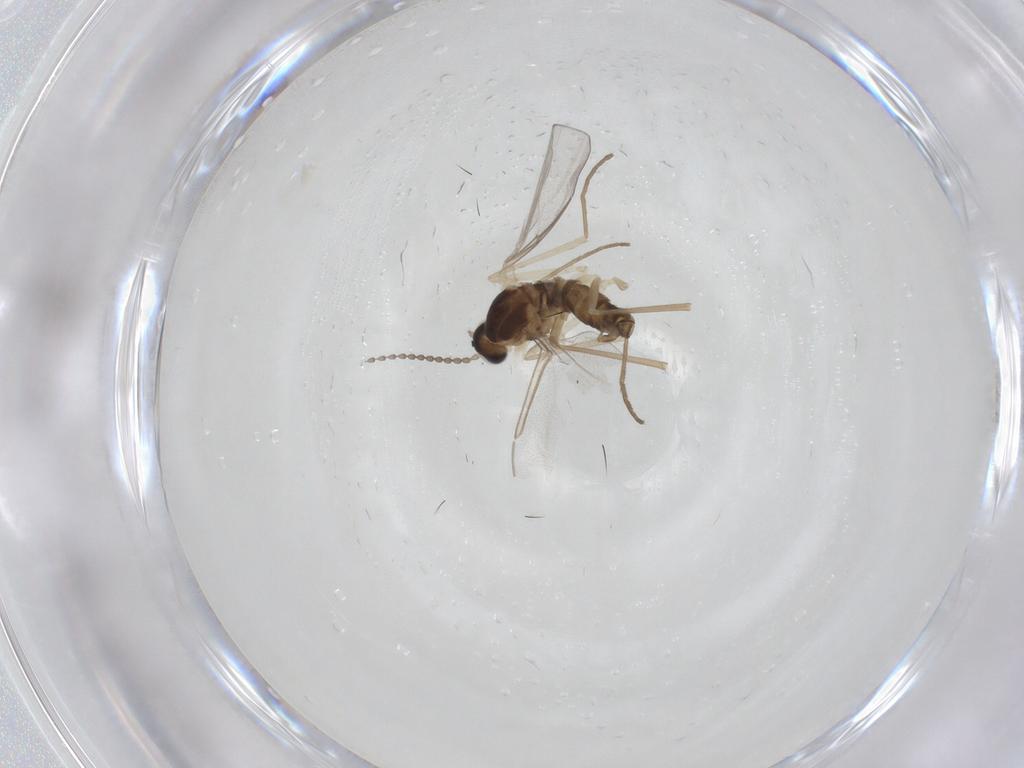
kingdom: Animalia
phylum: Arthropoda
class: Insecta
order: Diptera
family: Cecidomyiidae
